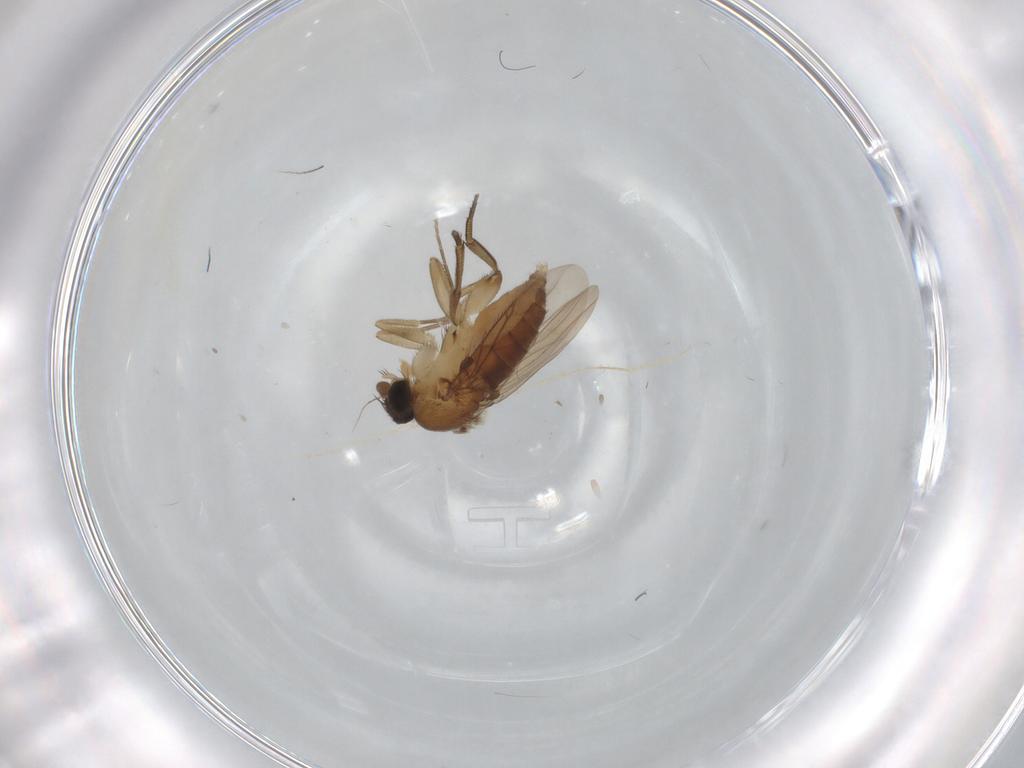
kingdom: Animalia
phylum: Arthropoda
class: Insecta
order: Diptera
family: Phoridae
